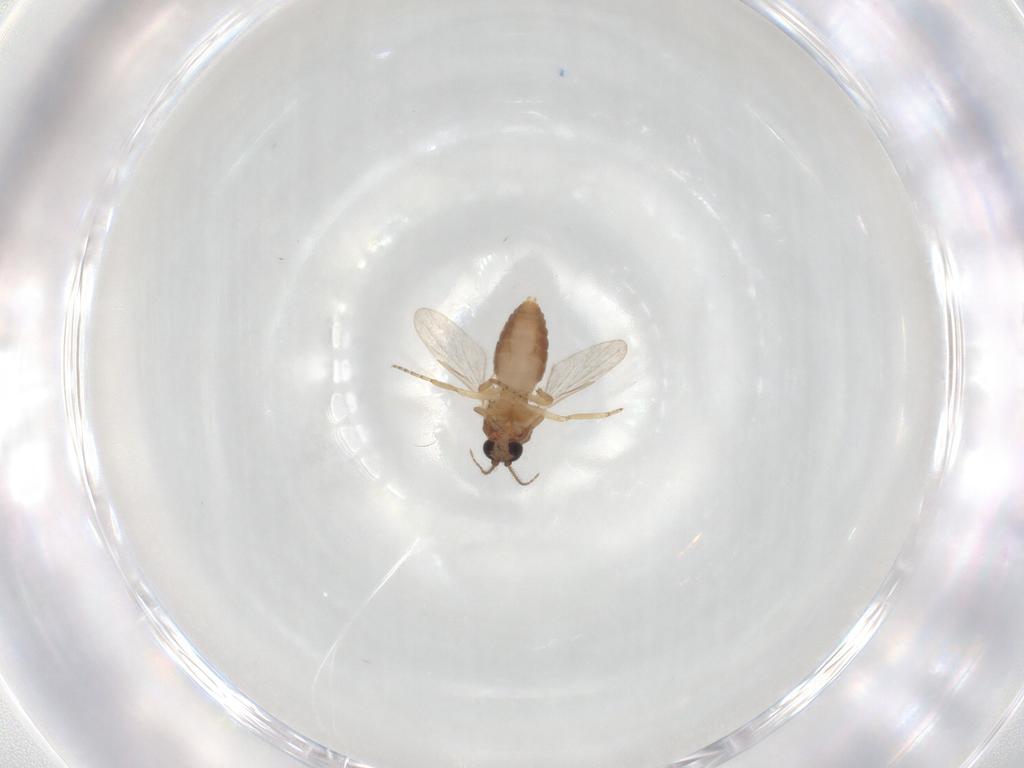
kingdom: Animalia
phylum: Arthropoda
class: Insecta
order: Diptera
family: Ceratopogonidae
